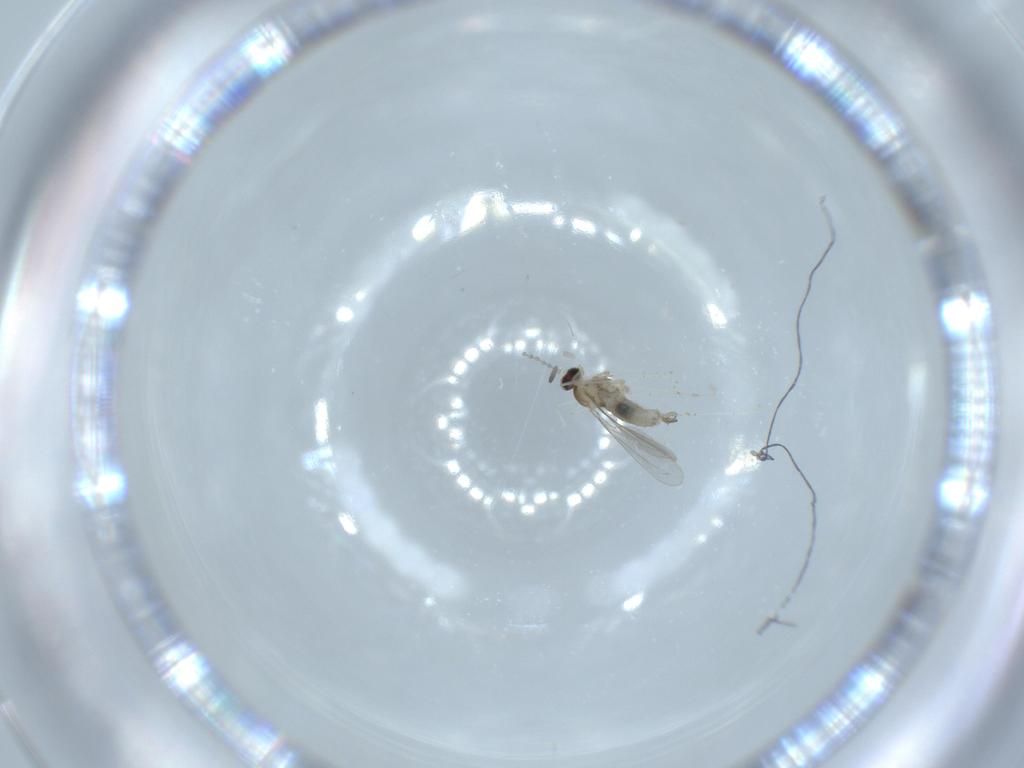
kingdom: Animalia
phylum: Arthropoda
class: Insecta
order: Diptera
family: Cecidomyiidae
